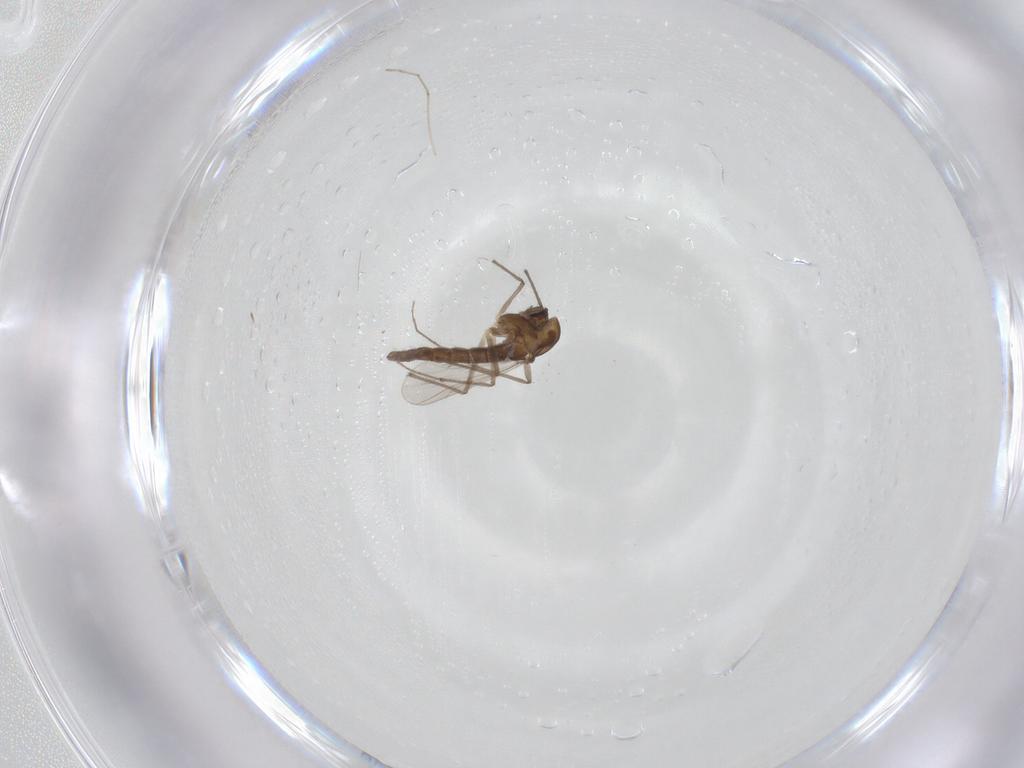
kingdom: Animalia
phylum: Arthropoda
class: Insecta
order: Diptera
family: Chironomidae
